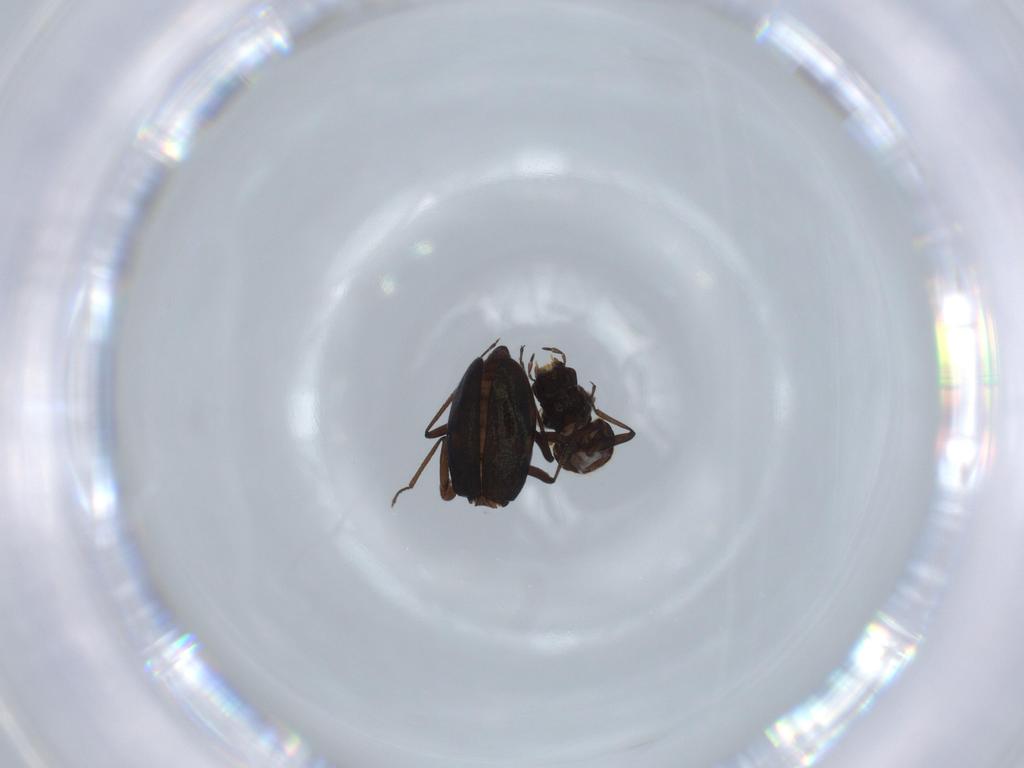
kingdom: Animalia
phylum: Arthropoda
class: Insecta
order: Coleoptera
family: Hydraenidae
